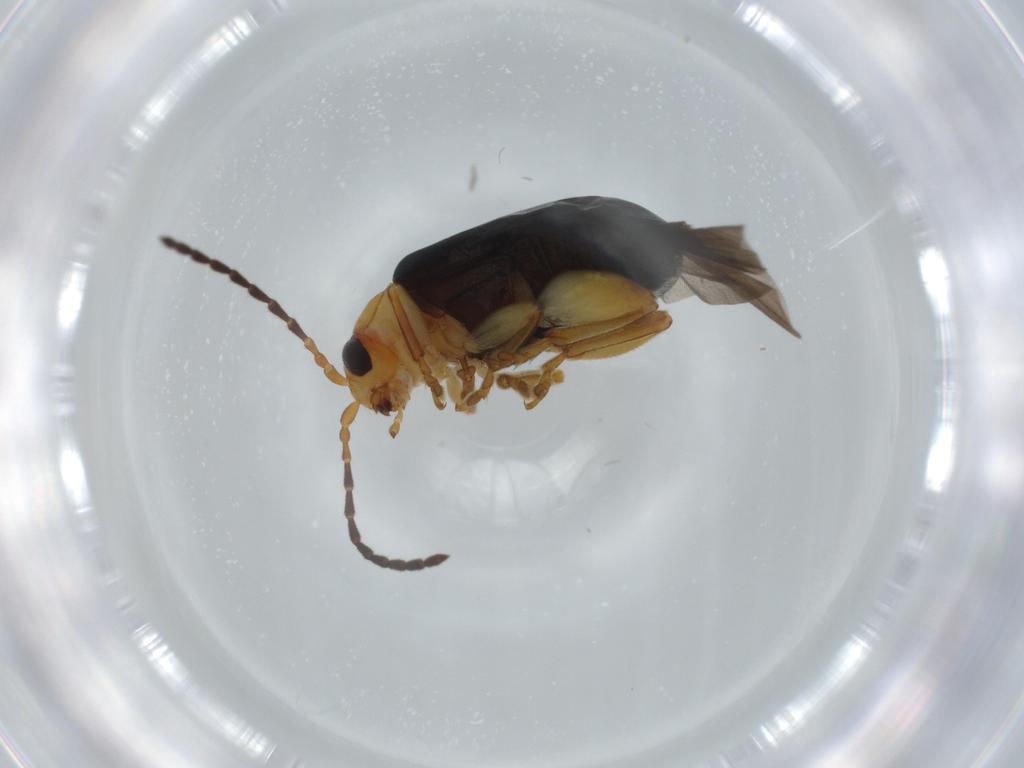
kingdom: Animalia
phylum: Arthropoda
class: Insecta
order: Coleoptera
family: Chrysomelidae
